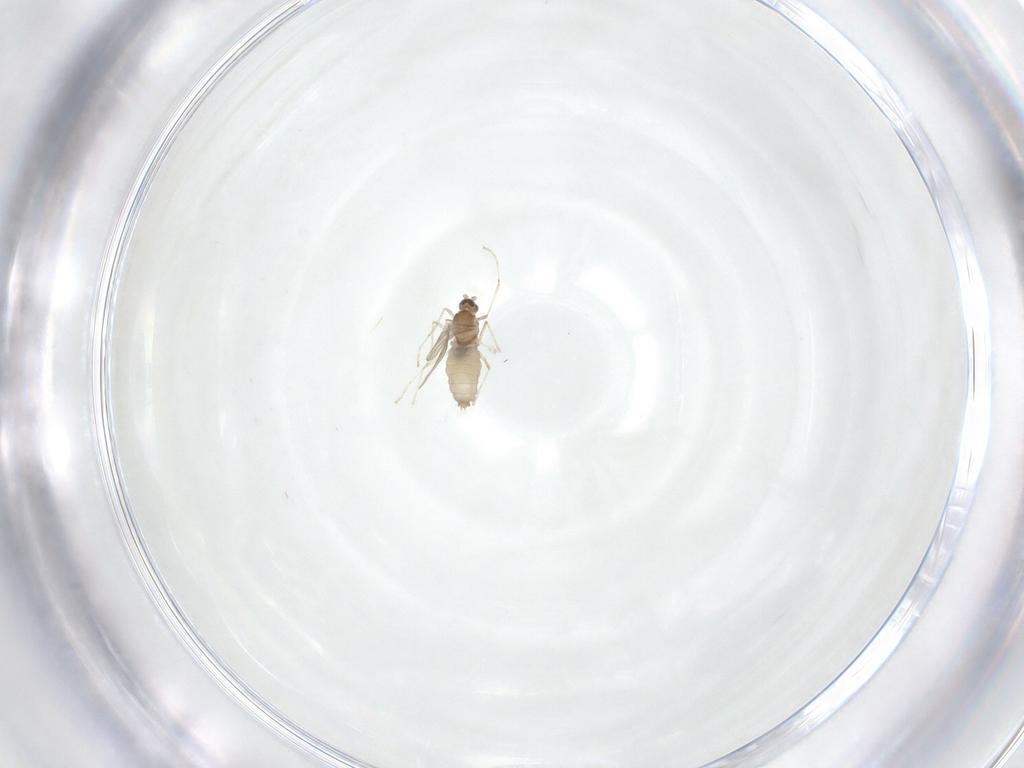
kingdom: Animalia
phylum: Arthropoda
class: Insecta
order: Diptera
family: Cecidomyiidae
